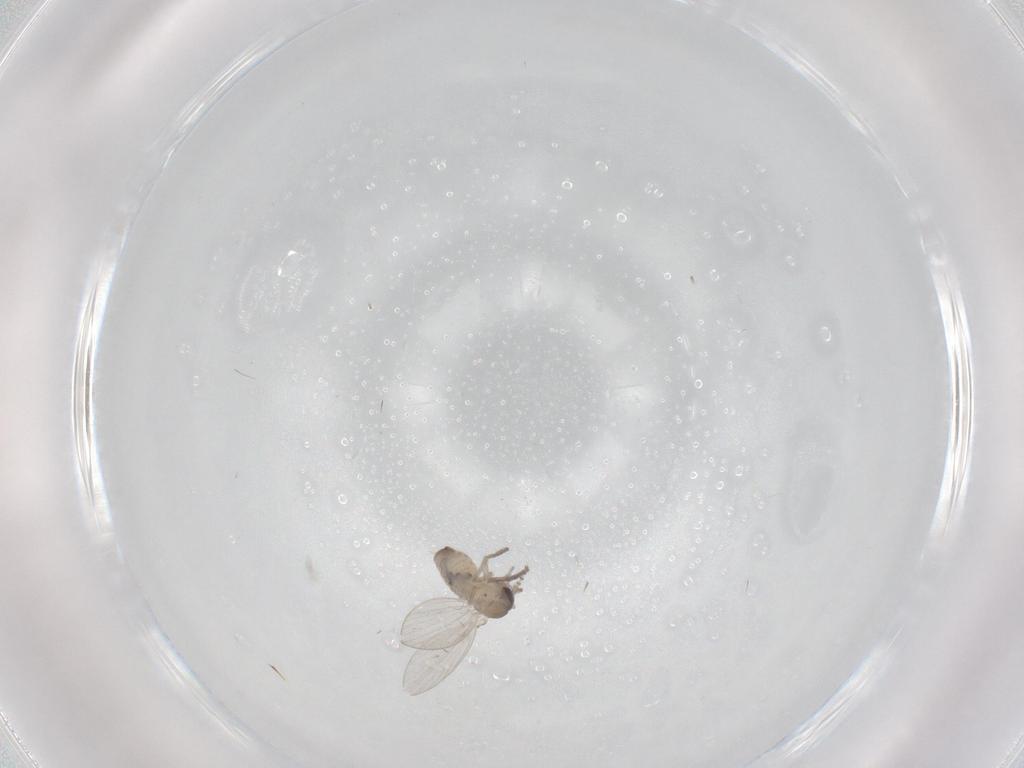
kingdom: Animalia
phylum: Arthropoda
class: Insecta
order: Diptera
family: Psychodidae
